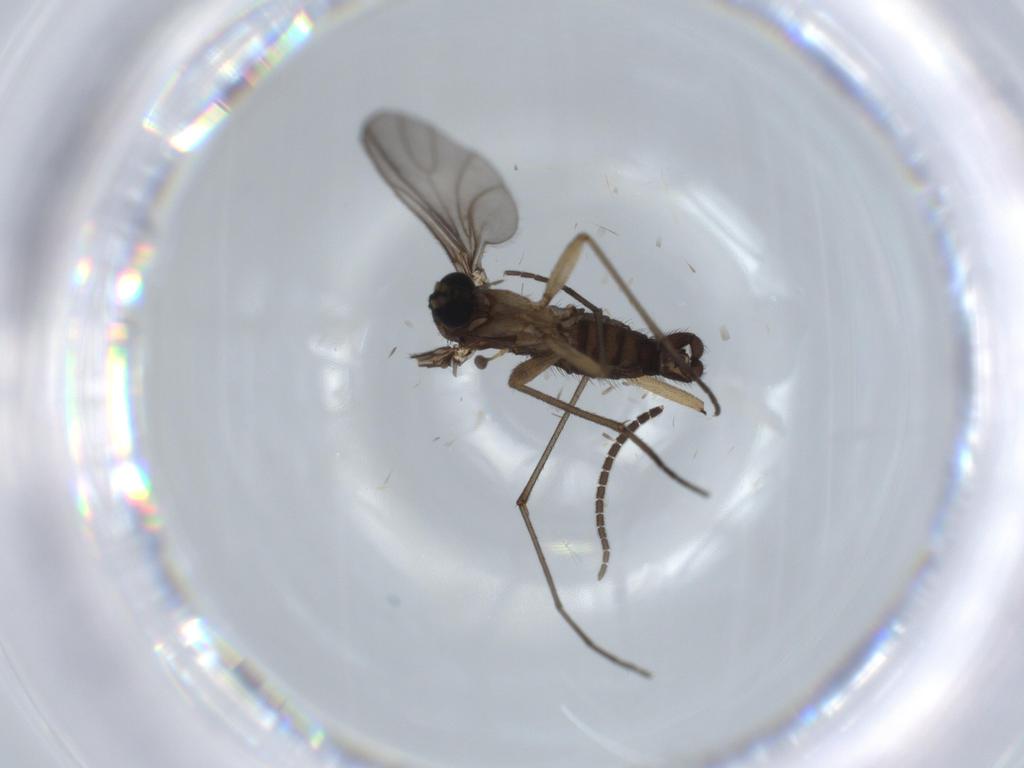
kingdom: Animalia
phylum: Arthropoda
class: Insecta
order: Diptera
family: Sciaridae
